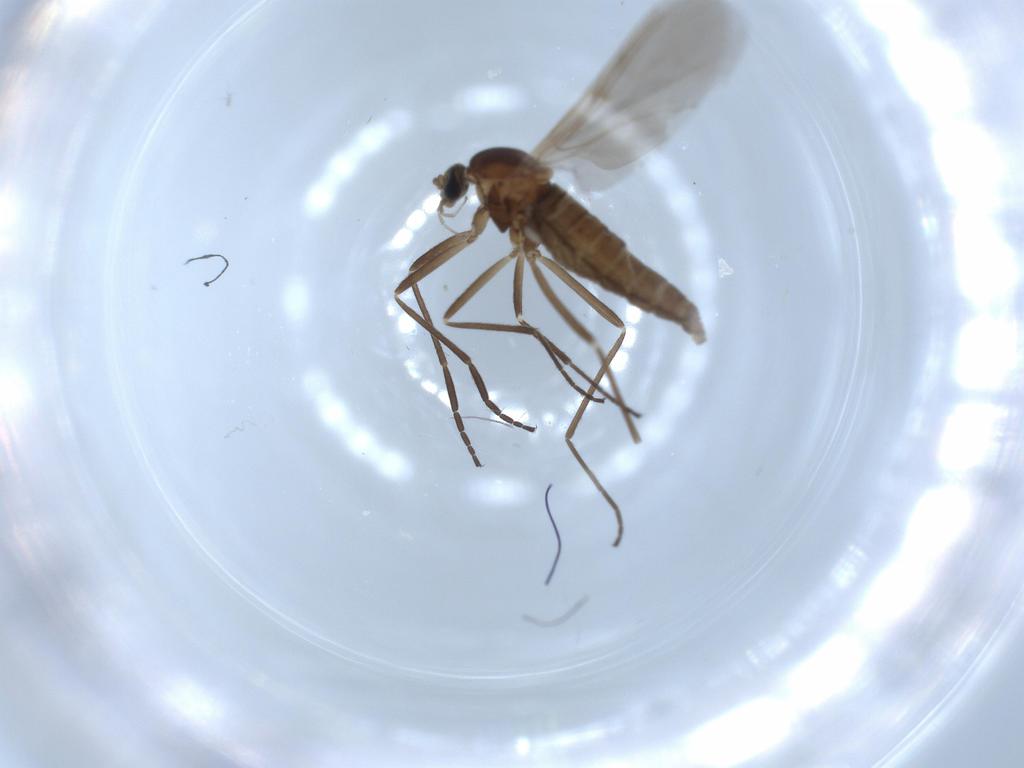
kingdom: Animalia
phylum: Arthropoda
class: Insecta
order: Diptera
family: Cecidomyiidae
